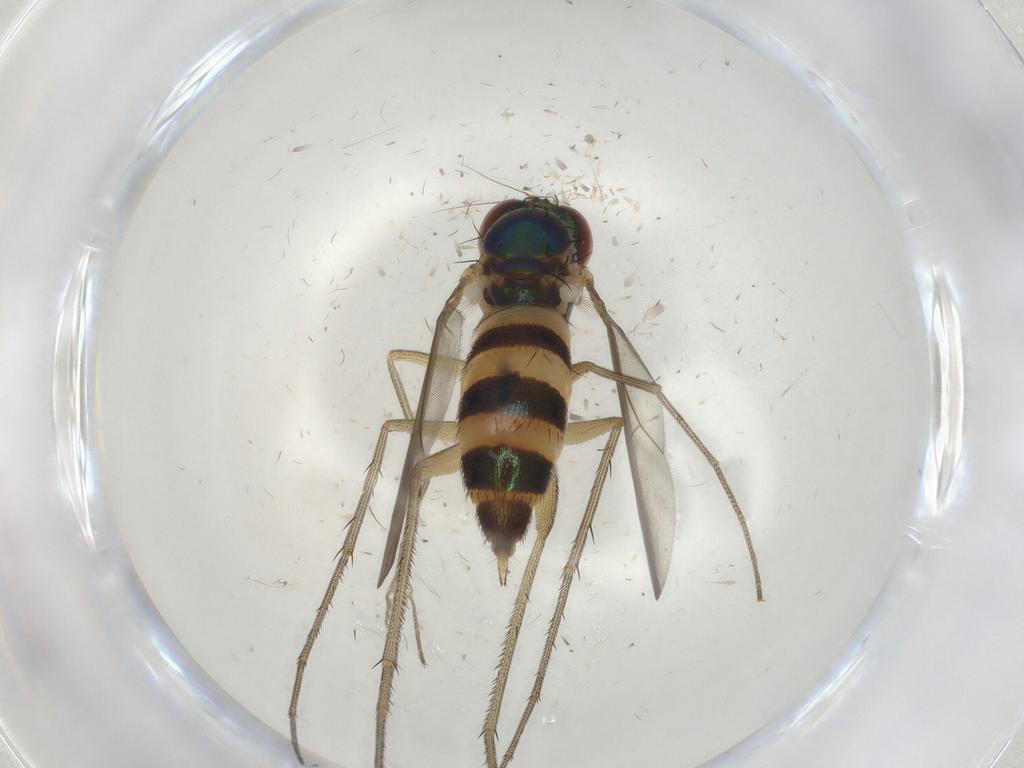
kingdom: Animalia
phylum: Arthropoda
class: Insecta
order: Diptera
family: Dolichopodidae
